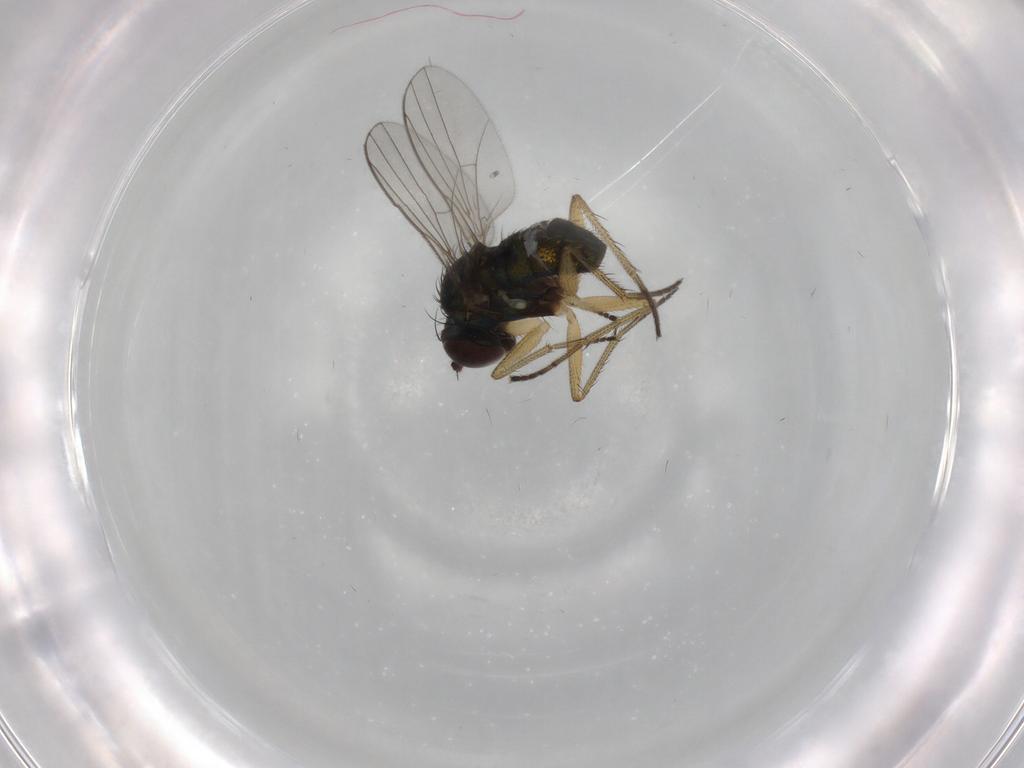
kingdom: Animalia
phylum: Arthropoda
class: Insecta
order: Diptera
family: Dolichopodidae
